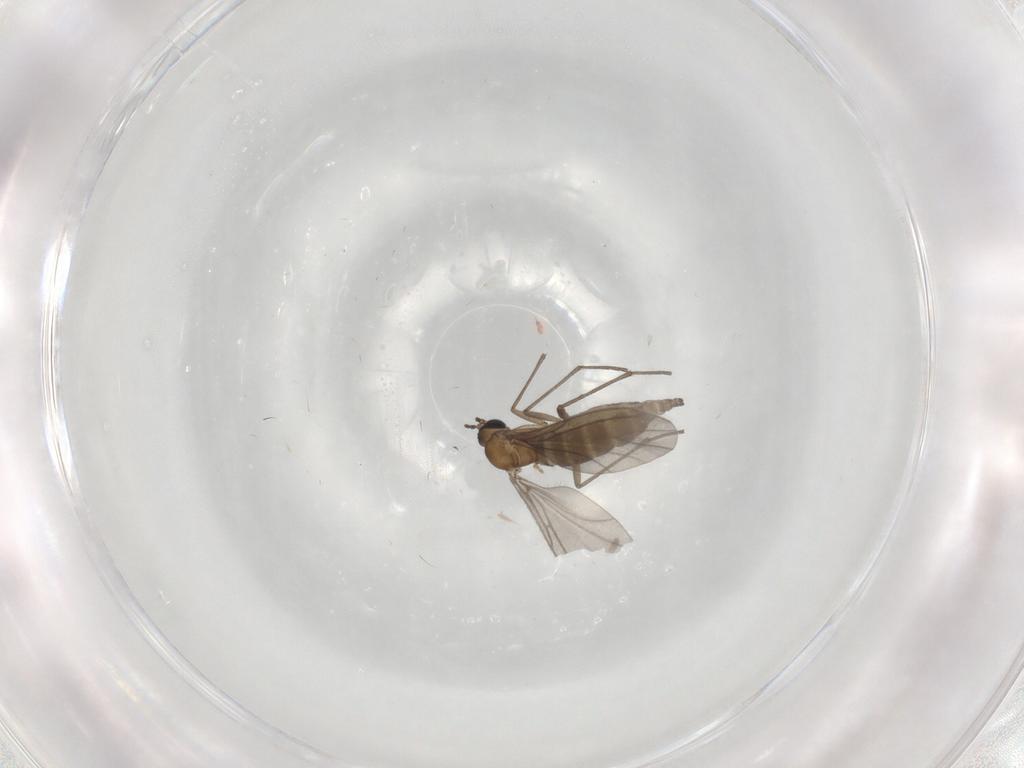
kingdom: Animalia
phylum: Arthropoda
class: Insecta
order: Diptera
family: Sciaridae
